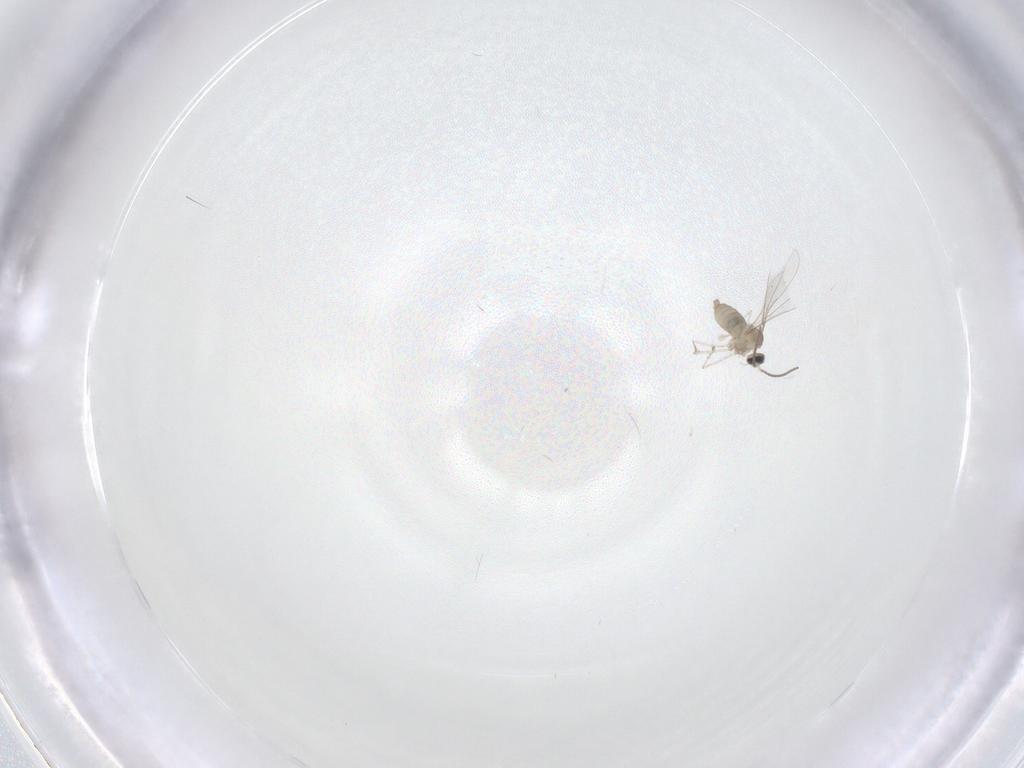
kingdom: Animalia
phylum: Arthropoda
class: Insecta
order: Diptera
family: Cecidomyiidae
